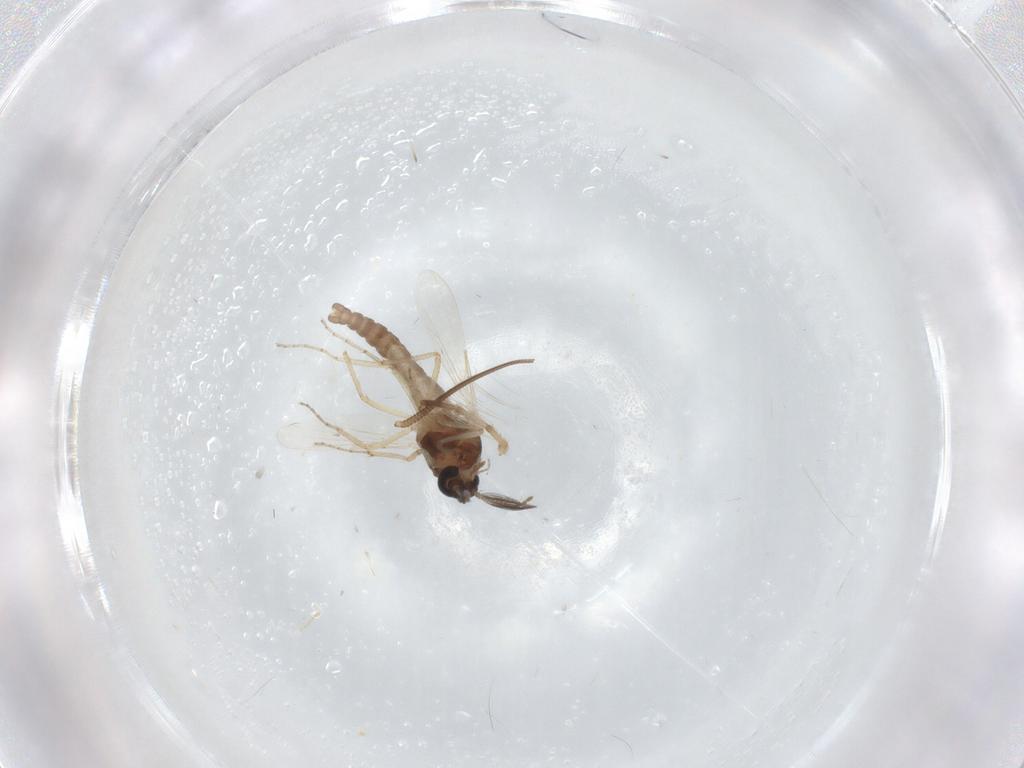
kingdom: Animalia
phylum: Arthropoda
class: Insecta
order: Diptera
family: Ceratopogonidae
